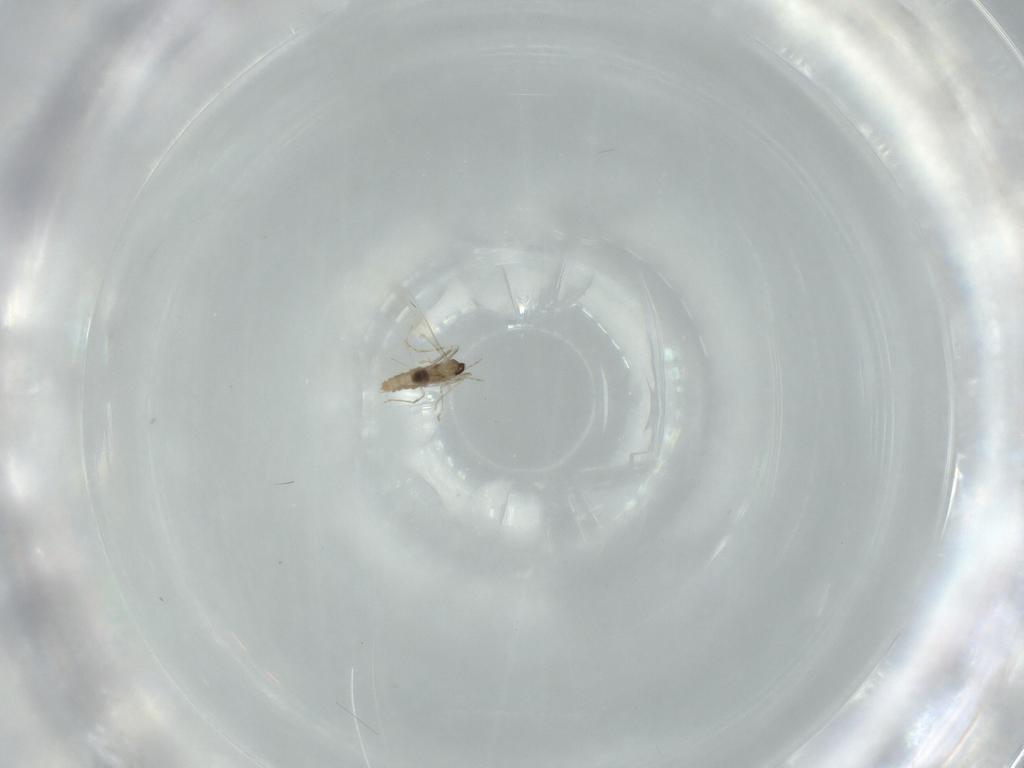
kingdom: Animalia
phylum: Arthropoda
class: Insecta
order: Diptera
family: Cecidomyiidae
